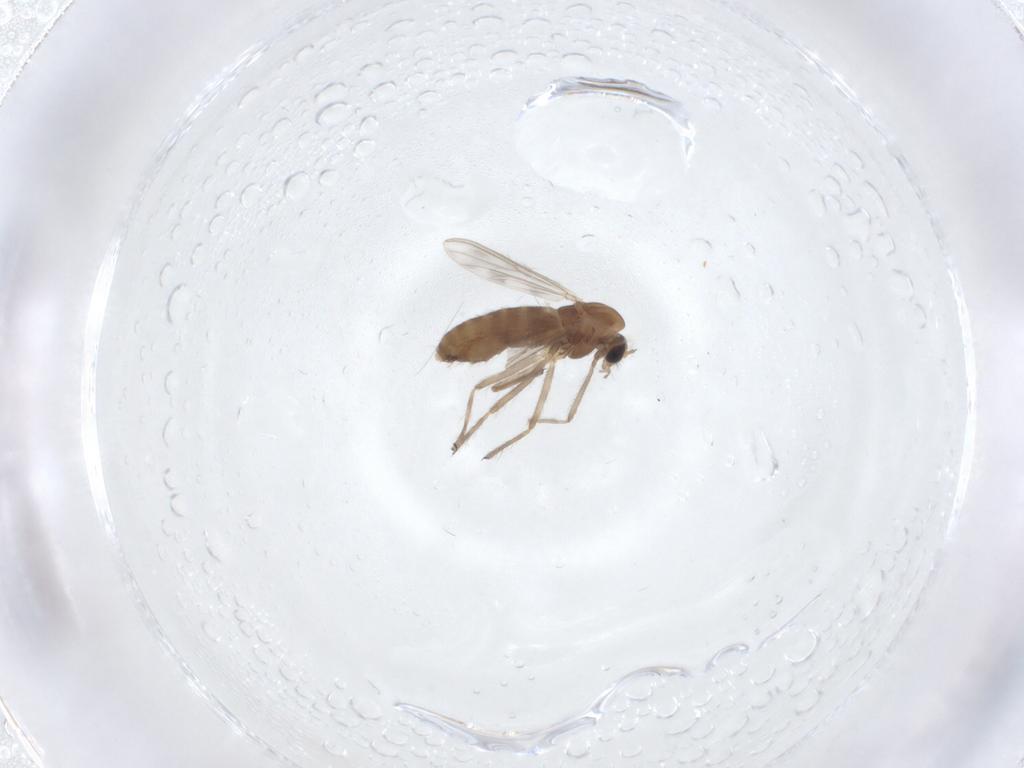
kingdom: Animalia
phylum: Arthropoda
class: Insecta
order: Diptera
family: Chironomidae
